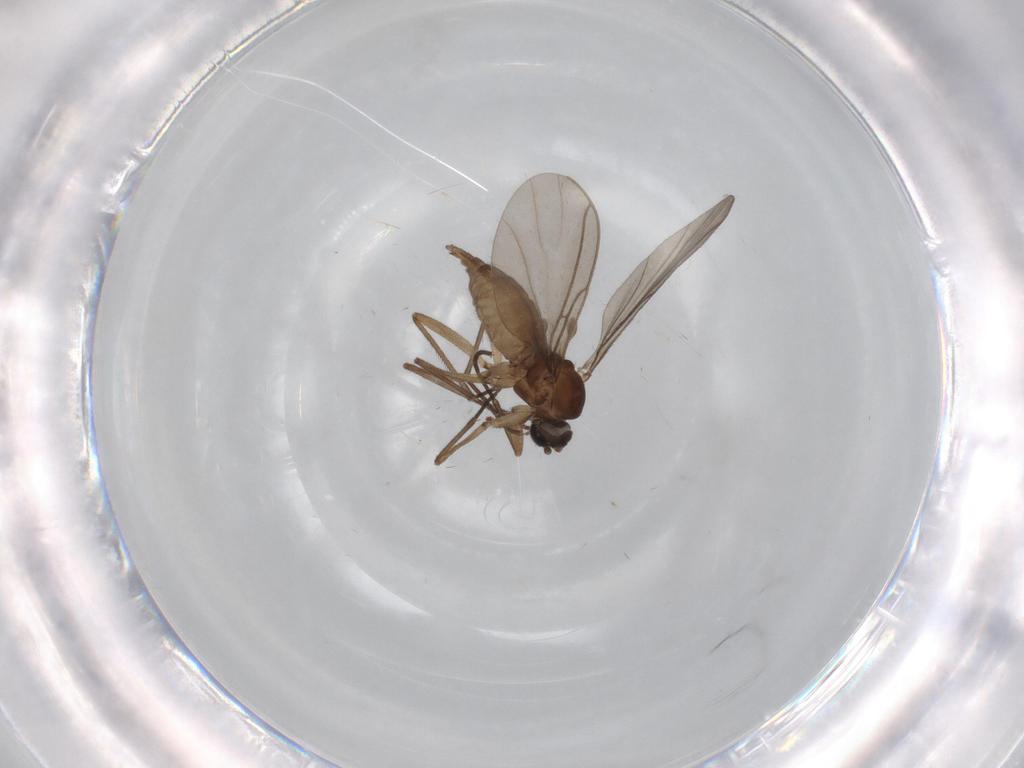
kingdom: Animalia
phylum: Arthropoda
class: Insecta
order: Diptera
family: Sciaridae
